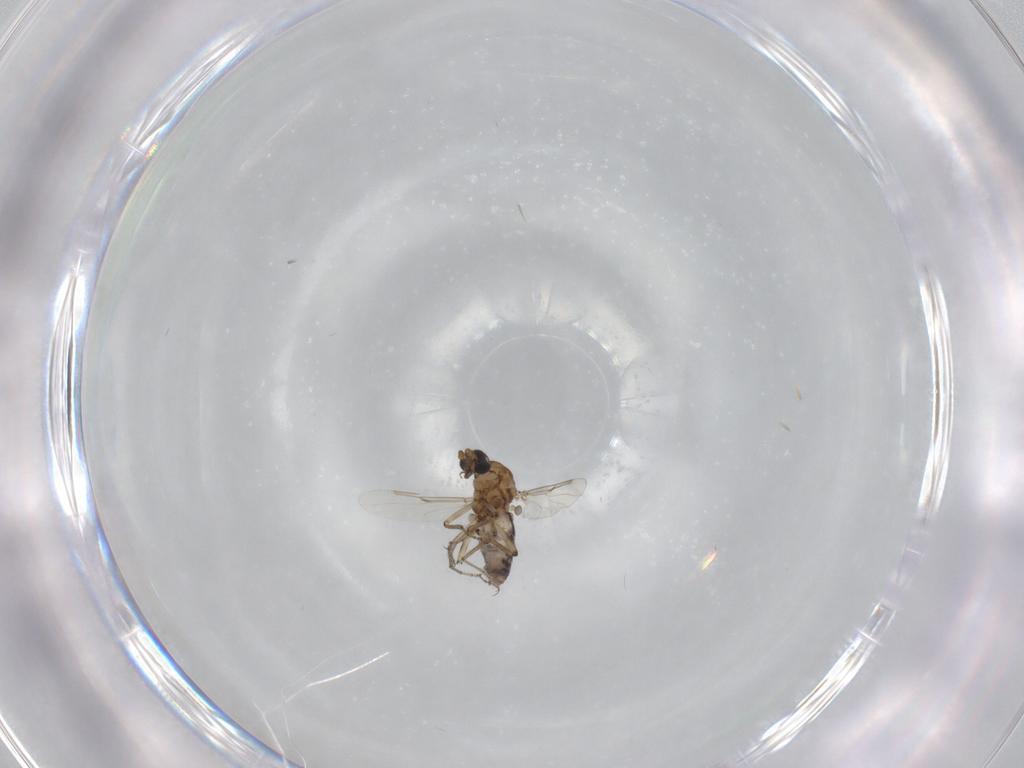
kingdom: Animalia
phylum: Arthropoda
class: Insecta
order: Diptera
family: Ceratopogonidae
